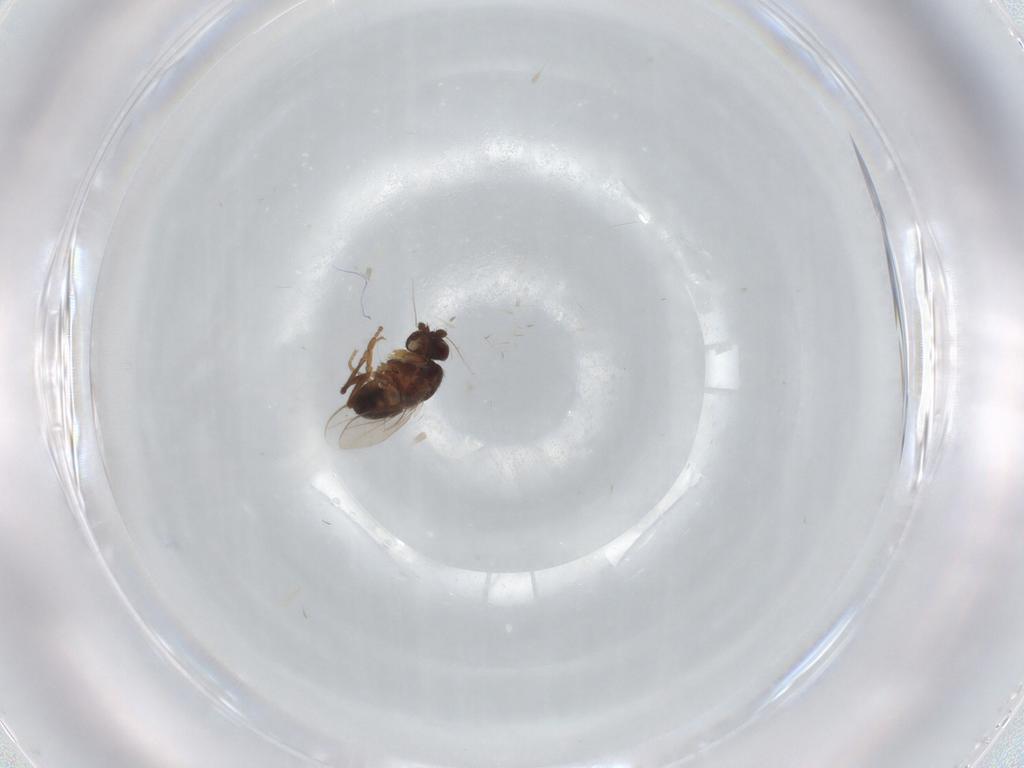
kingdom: Animalia
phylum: Arthropoda
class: Insecta
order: Diptera
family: Sphaeroceridae
